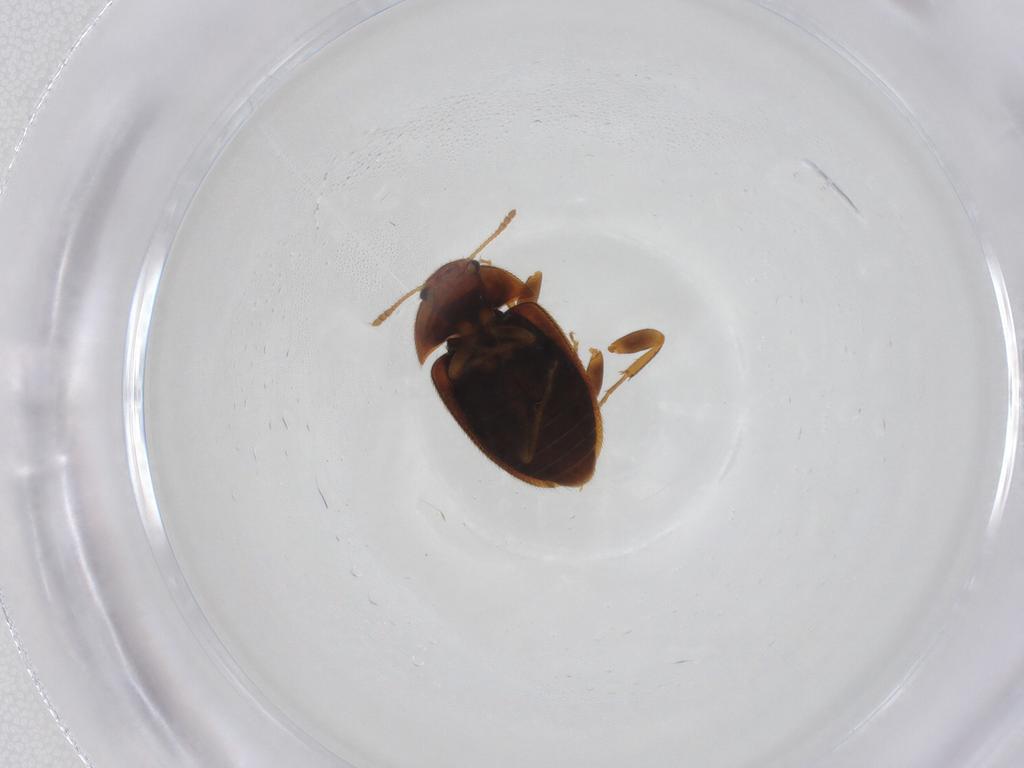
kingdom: Animalia
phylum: Arthropoda
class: Insecta
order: Coleoptera
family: Mycetophagidae
